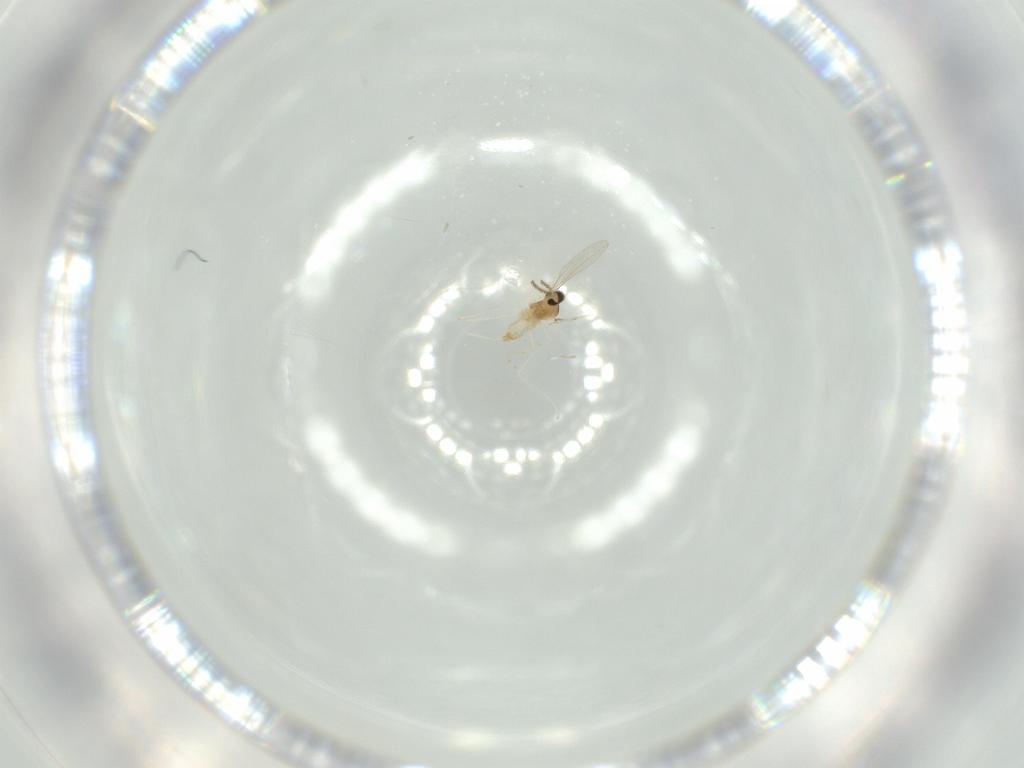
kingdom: Animalia
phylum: Arthropoda
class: Insecta
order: Diptera
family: Cecidomyiidae
